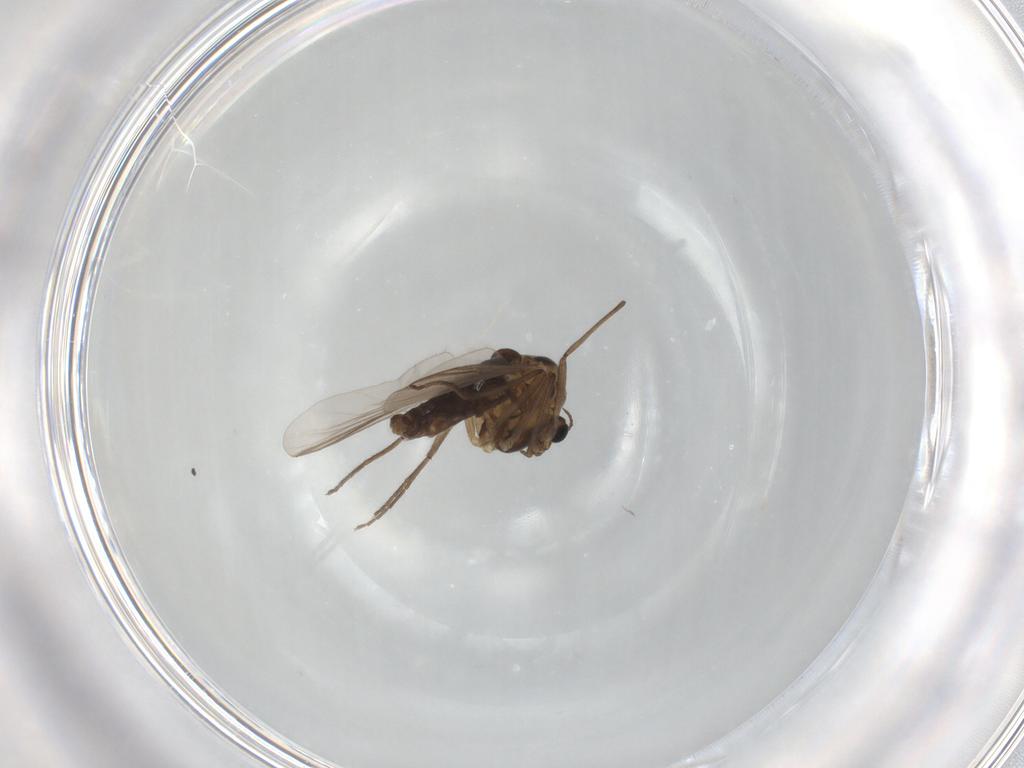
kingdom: Animalia
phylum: Arthropoda
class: Insecta
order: Diptera
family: Chironomidae
